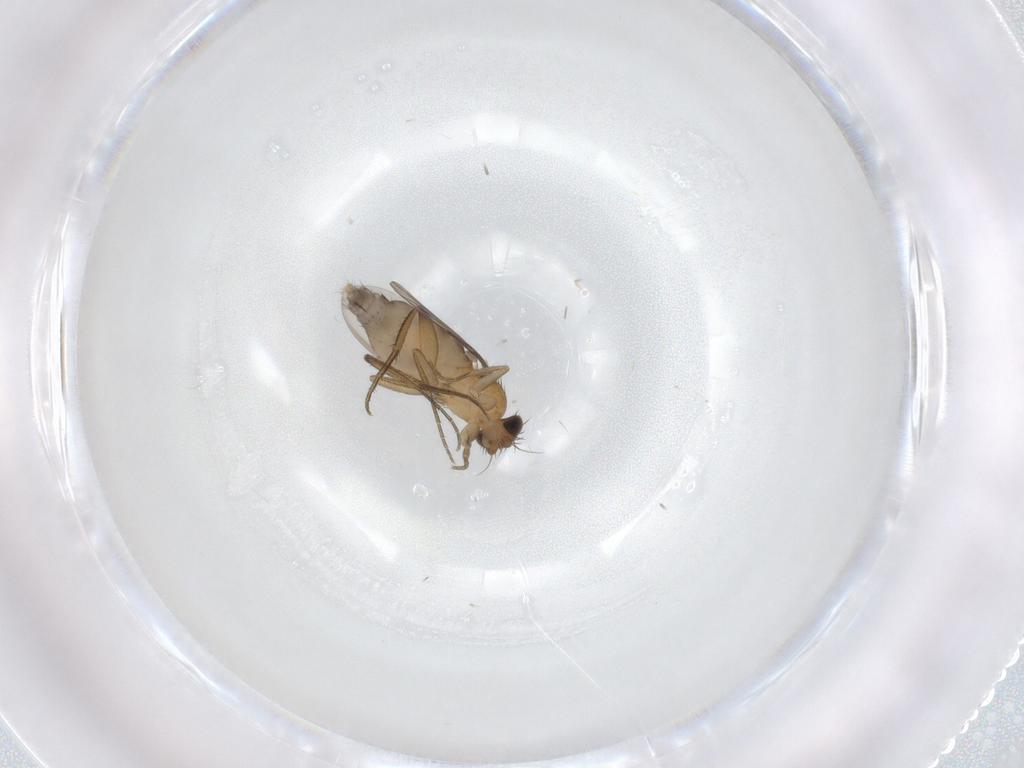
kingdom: Animalia
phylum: Arthropoda
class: Insecta
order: Diptera
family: Phoridae
